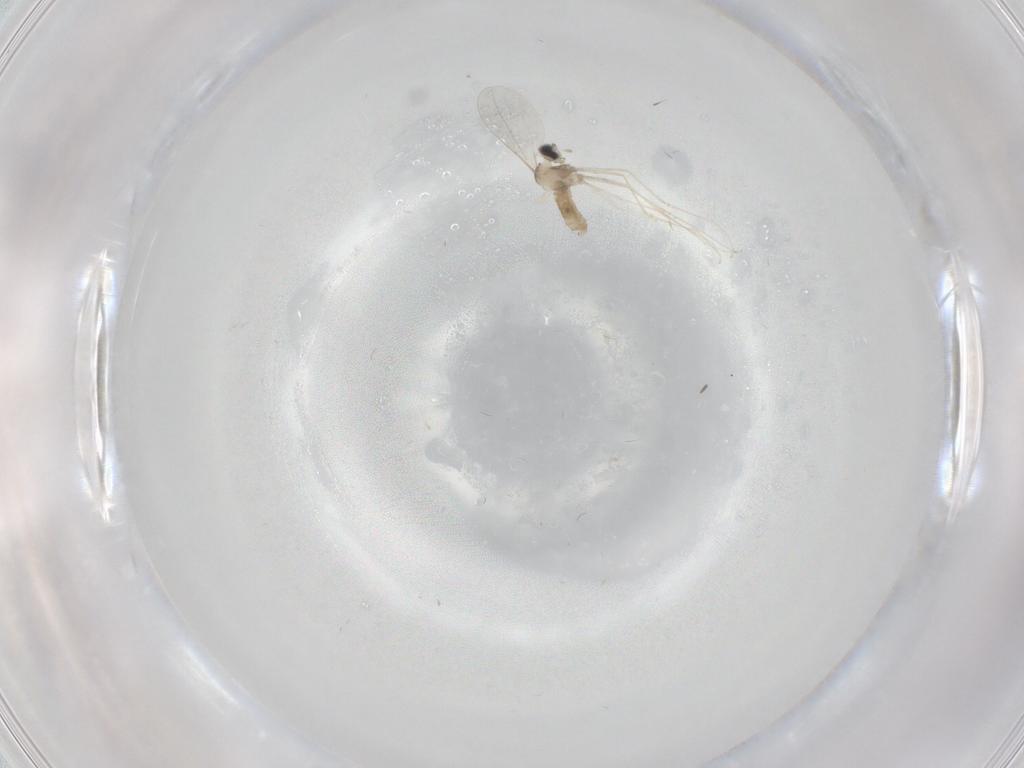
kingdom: Animalia
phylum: Arthropoda
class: Insecta
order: Diptera
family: Cecidomyiidae
